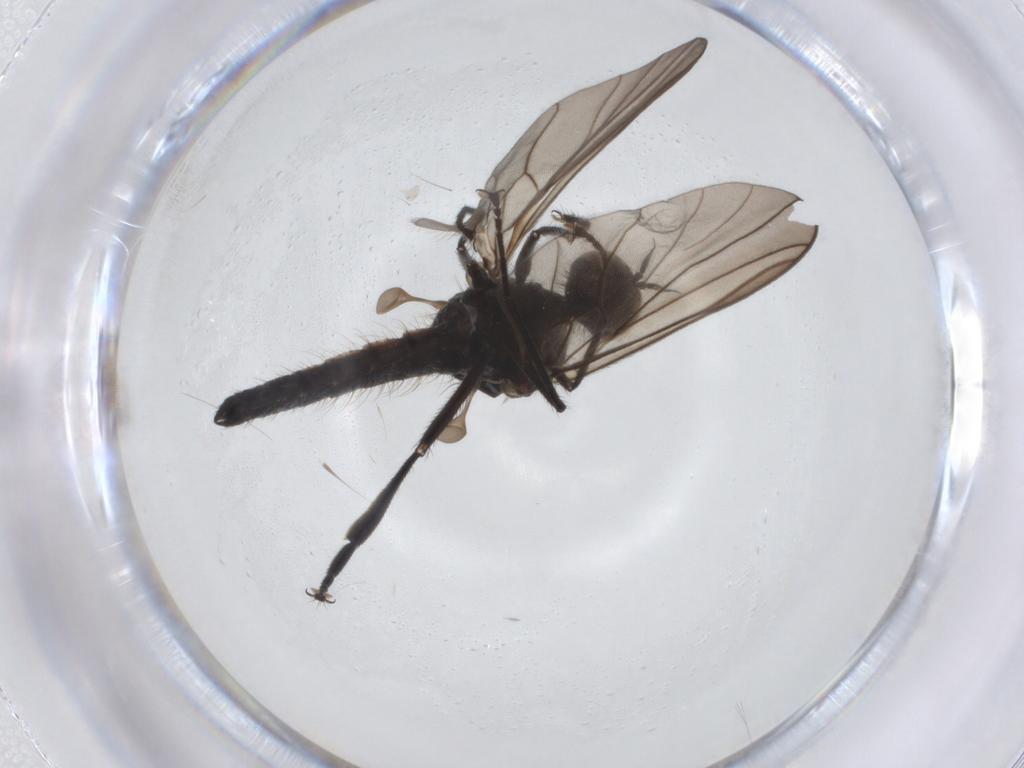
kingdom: Animalia
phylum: Arthropoda
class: Insecta
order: Diptera
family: Hybotidae
